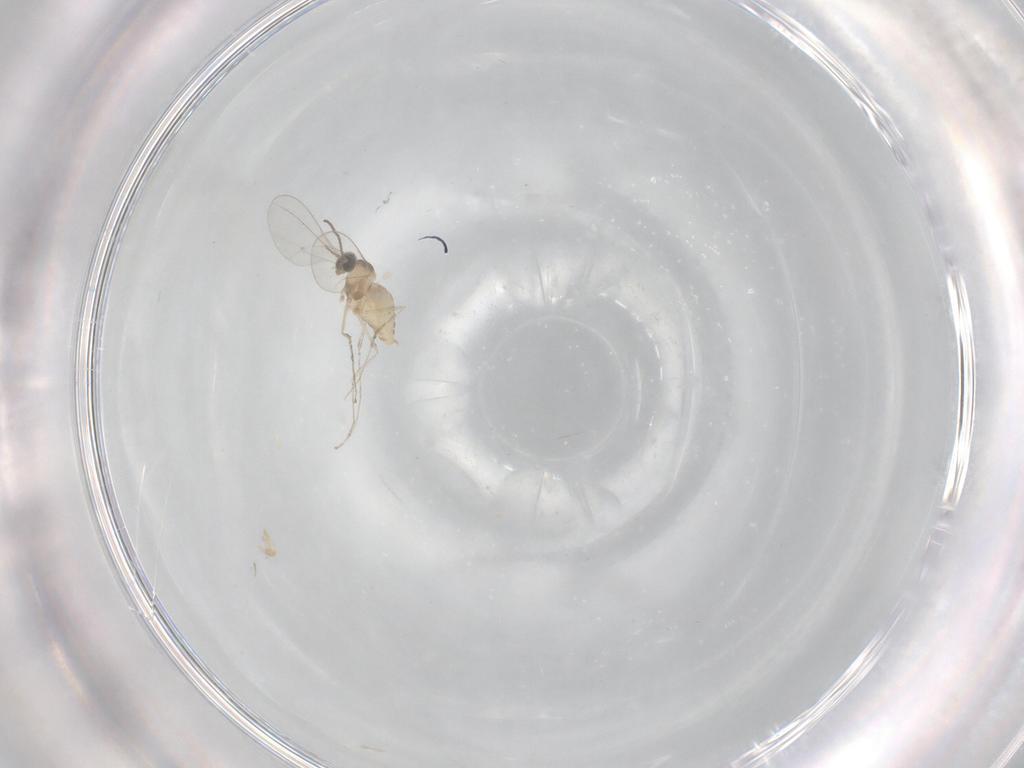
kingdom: Animalia
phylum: Arthropoda
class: Insecta
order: Diptera
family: Cecidomyiidae
